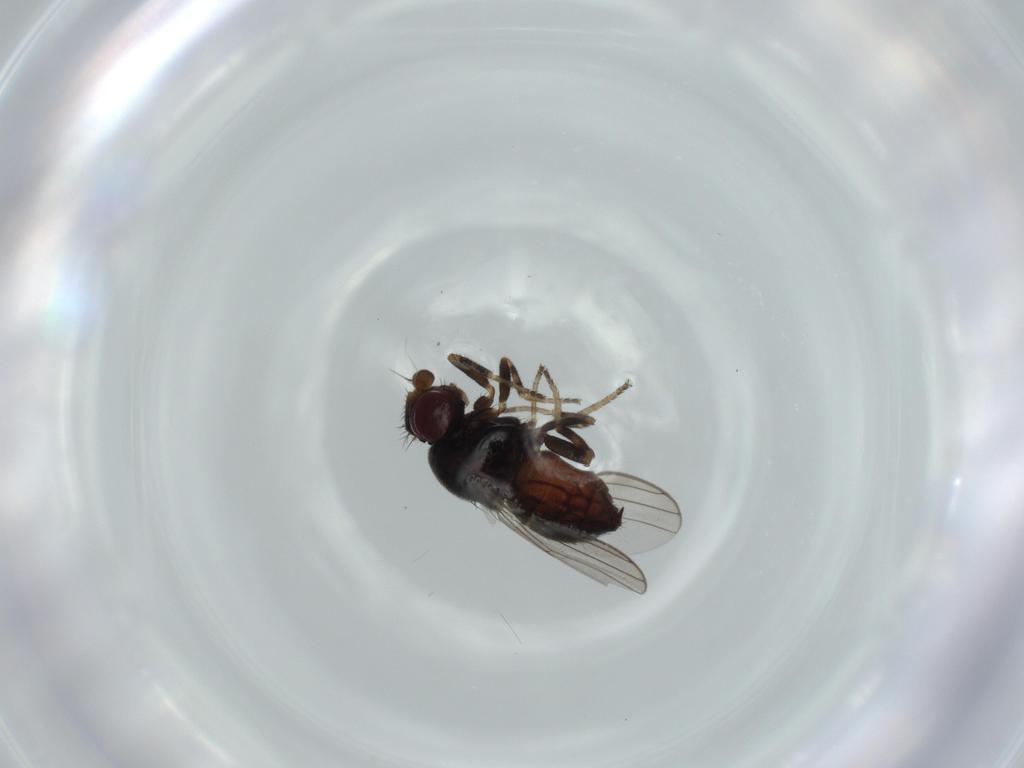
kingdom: Animalia
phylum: Arthropoda
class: Insecta
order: Diptera
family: Chloropidae
